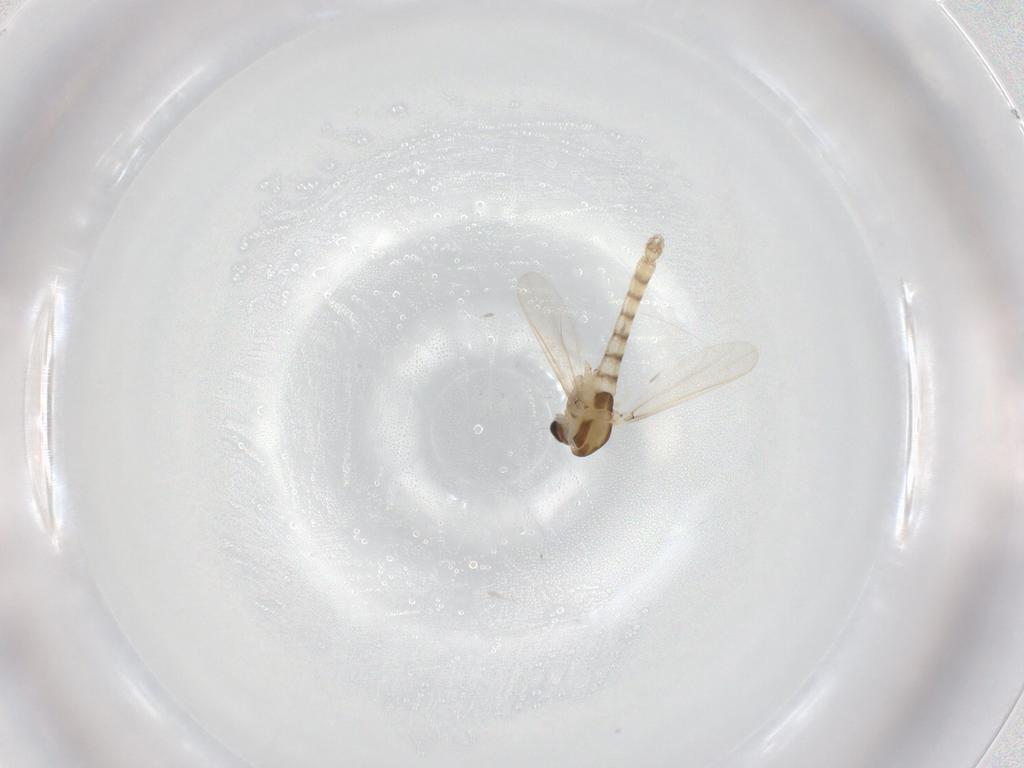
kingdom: Animalia
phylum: Arthropoda
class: Insecta
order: Diptera
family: Chironomidae
